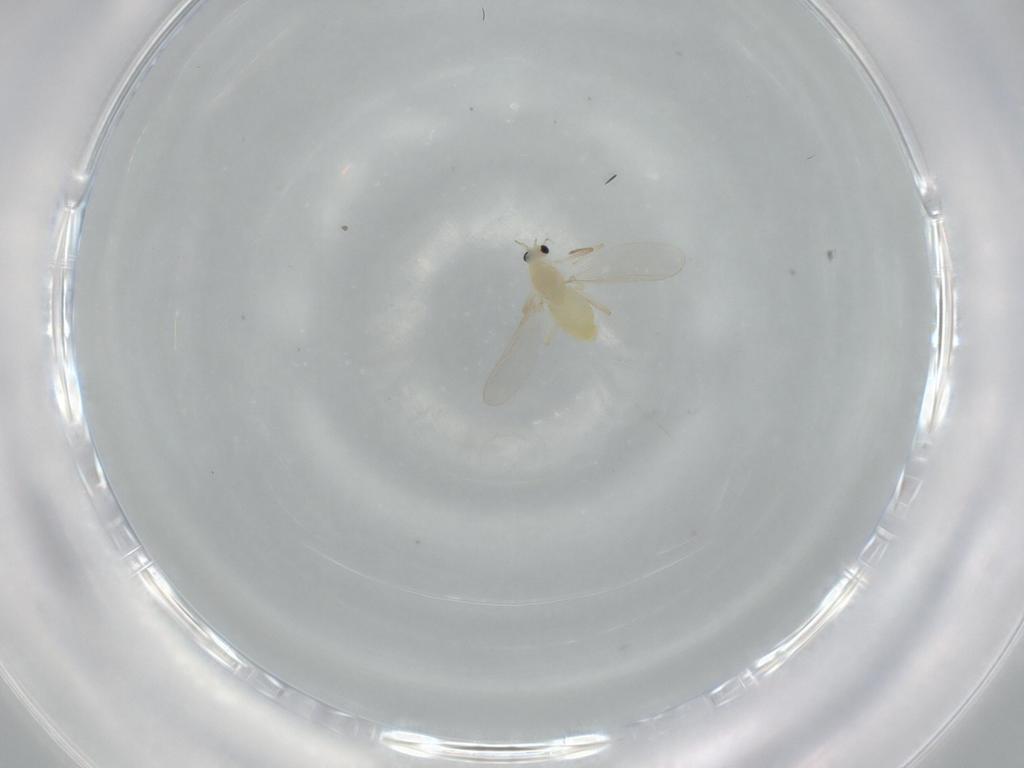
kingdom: Animalia
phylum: Arthropoda
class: Insecta
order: Diptera
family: Chironomidae
